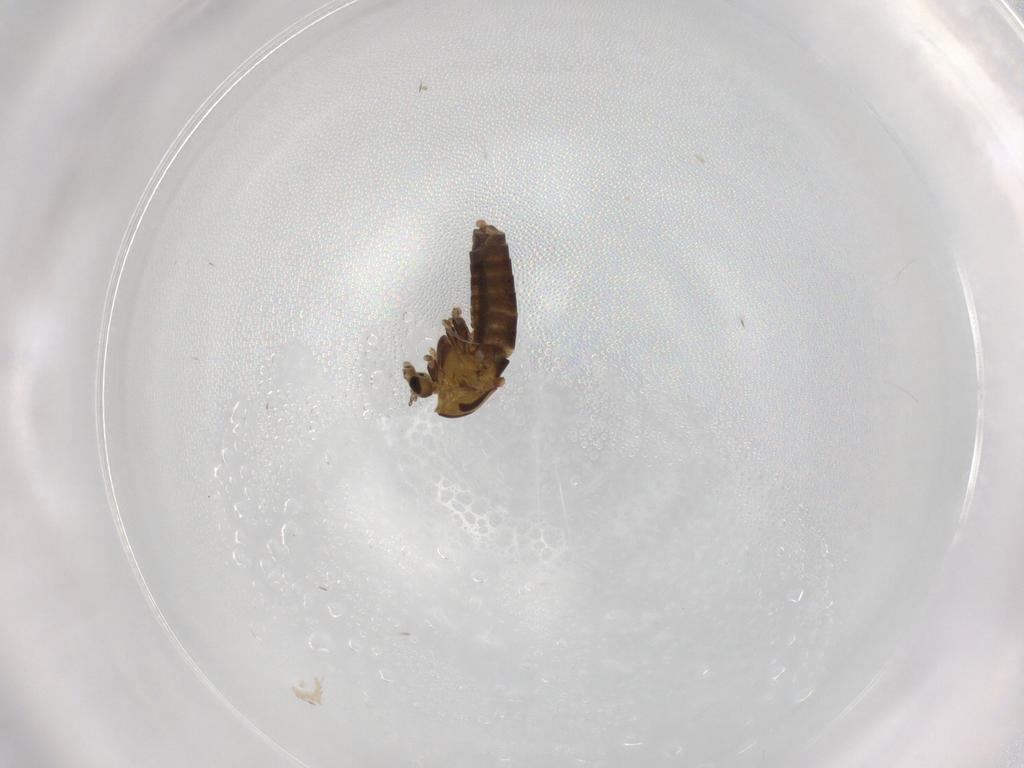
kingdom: Animalia
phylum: Arthropoda
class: Insecta
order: Diptera
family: Chironomidae
